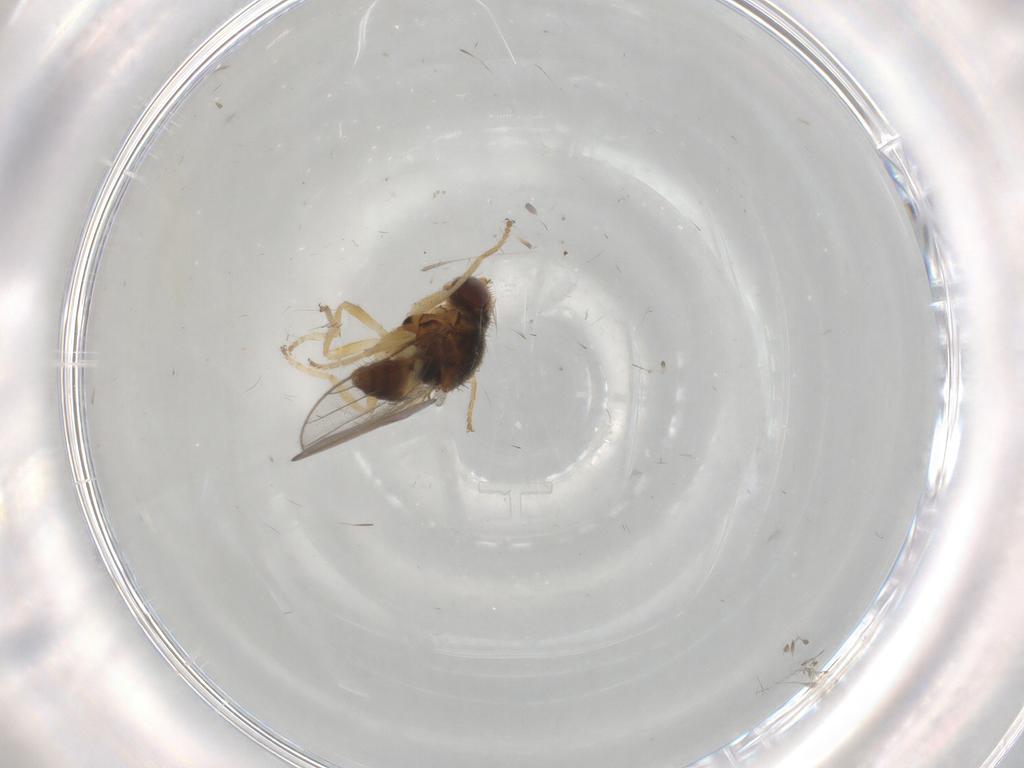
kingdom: Animalia
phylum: Arthropoda
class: Insecta
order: Diptera
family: Chloropidae
